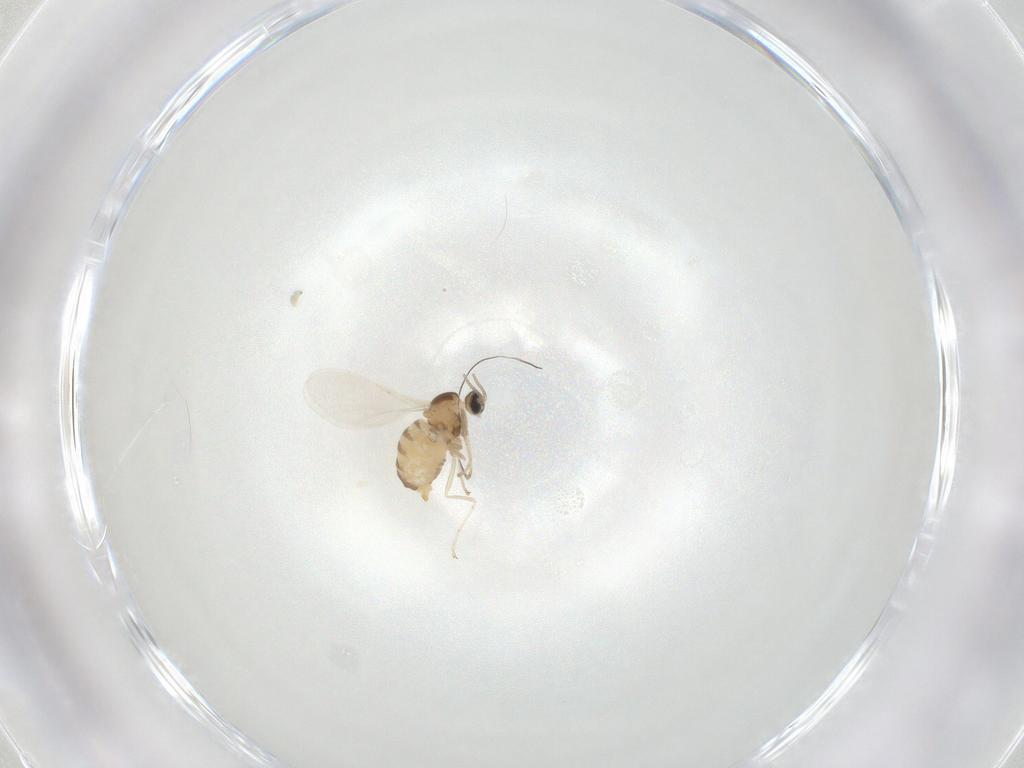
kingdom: Animalia
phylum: Arthropoda
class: Insecta
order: Diptera
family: Cecidomyiidae
